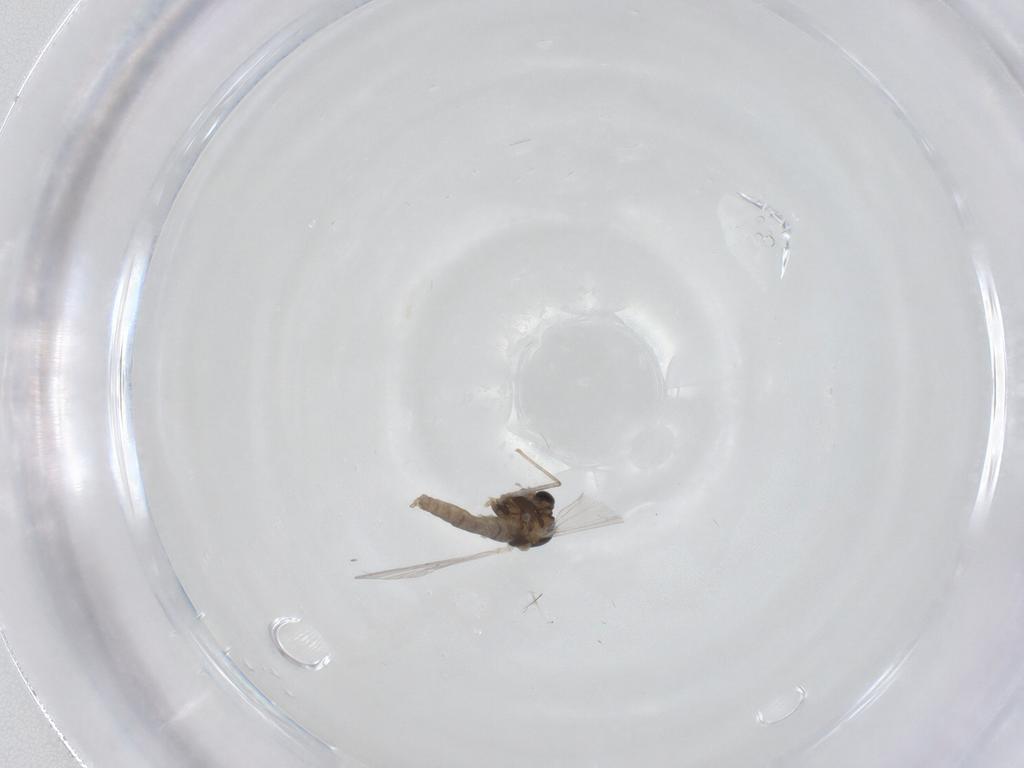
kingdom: Animalia
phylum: Arthropoda
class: Insecta
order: Diptera
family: Chironomidae
